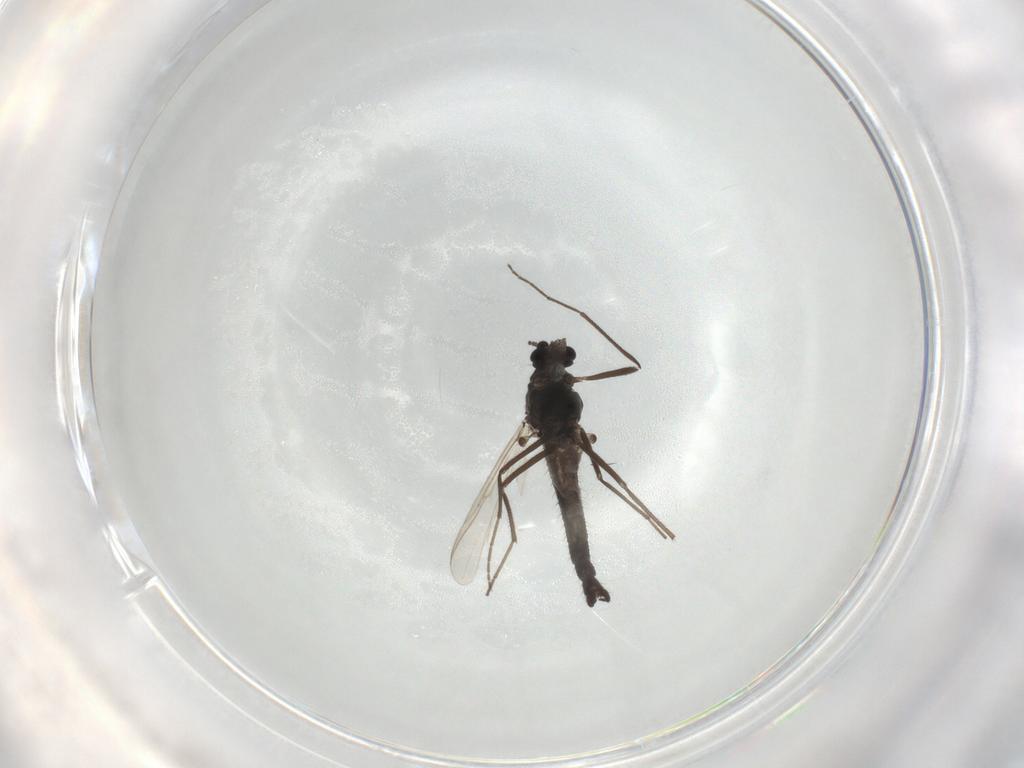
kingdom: Animalia
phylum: Arthropoda
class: Insecta
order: Diptera
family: Chironomidae
